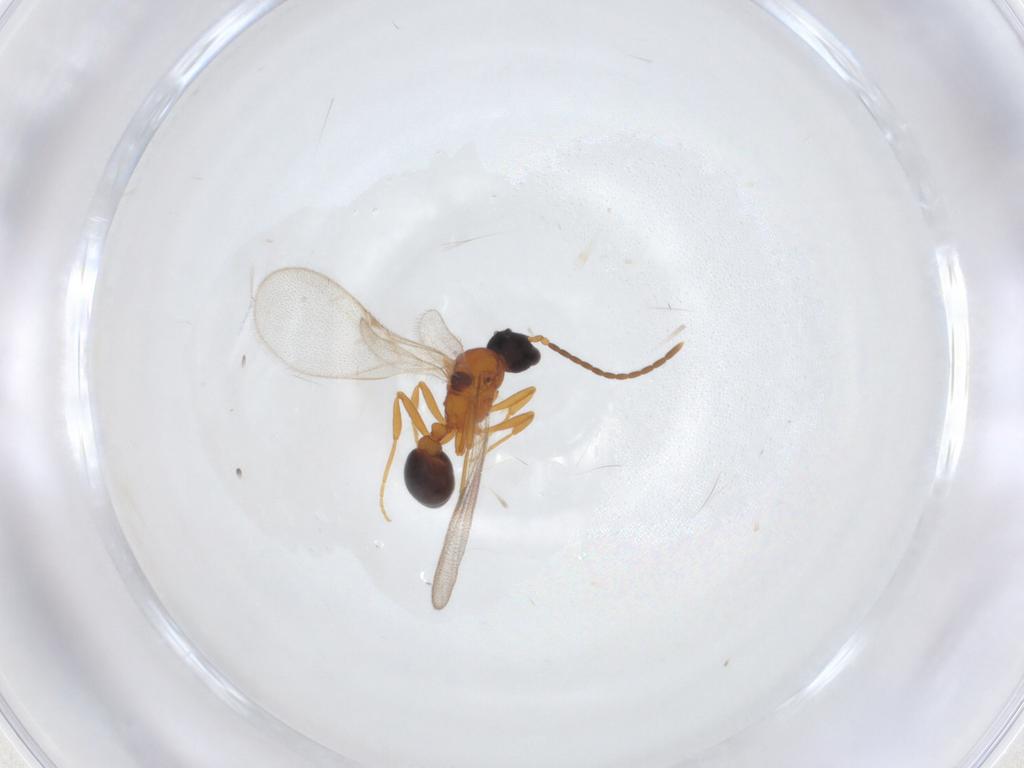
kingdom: Animalia
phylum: Arthropoda
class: Insecta
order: Hymenoptera
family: Formicidae
